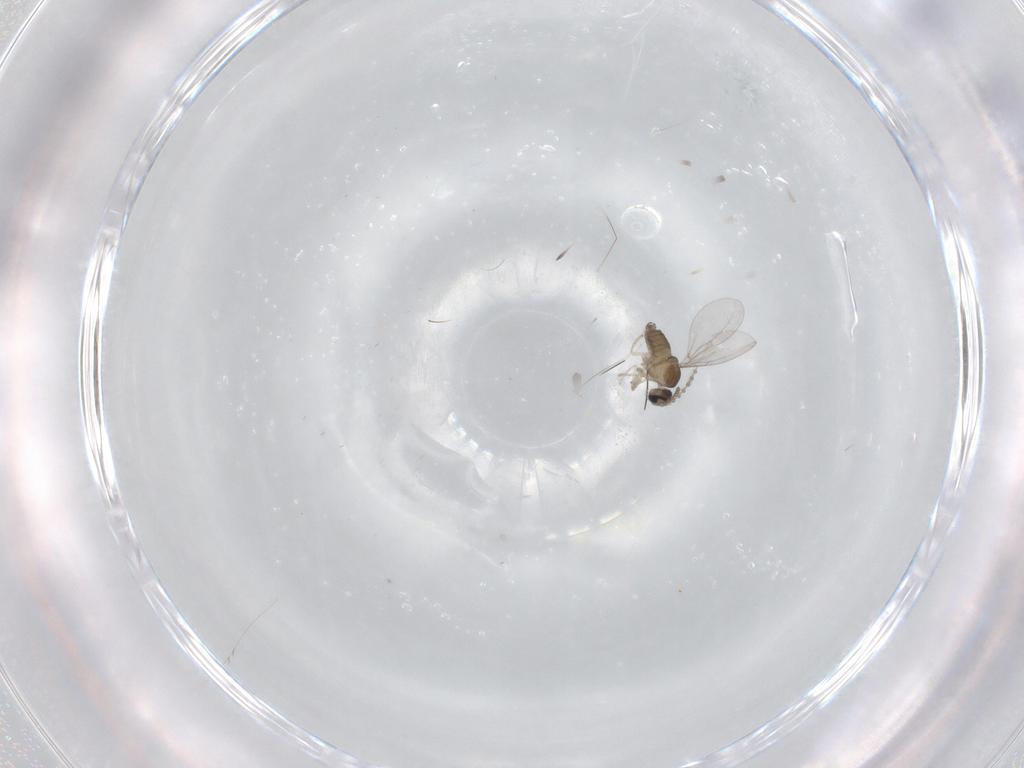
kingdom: Animalia
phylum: Arthropoda
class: Insecta
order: Diptera
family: Cecidomyiidae
